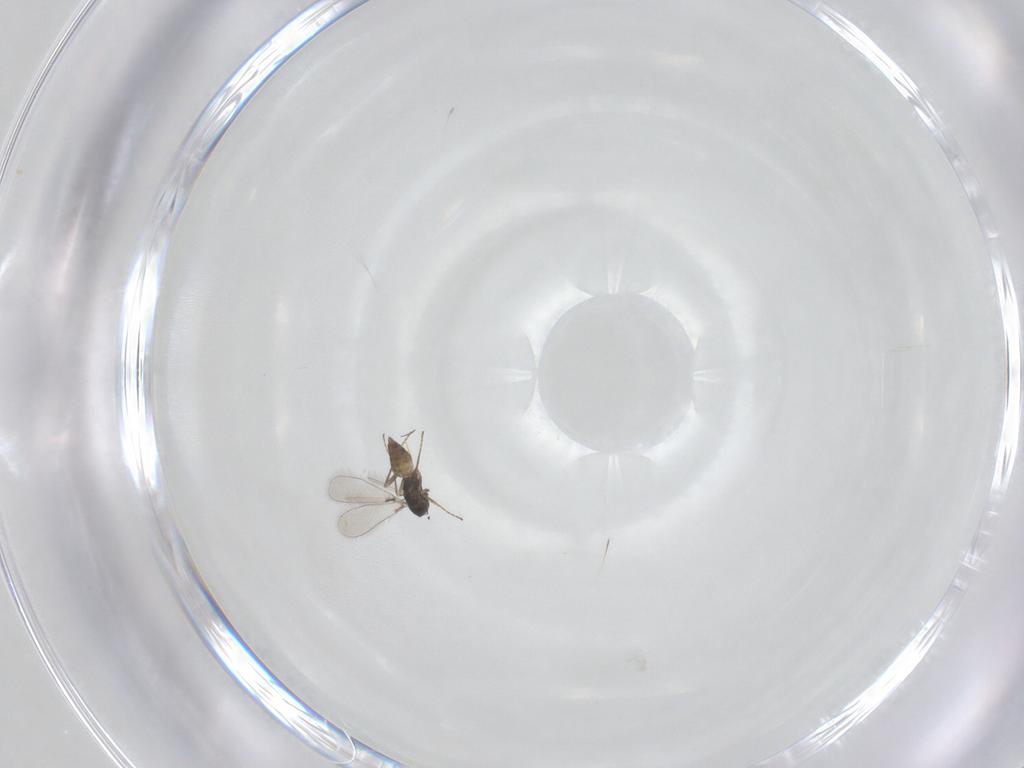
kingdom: Animalia
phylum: Arthropoda
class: Insecta
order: Hymenoptera
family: Mymaridae
